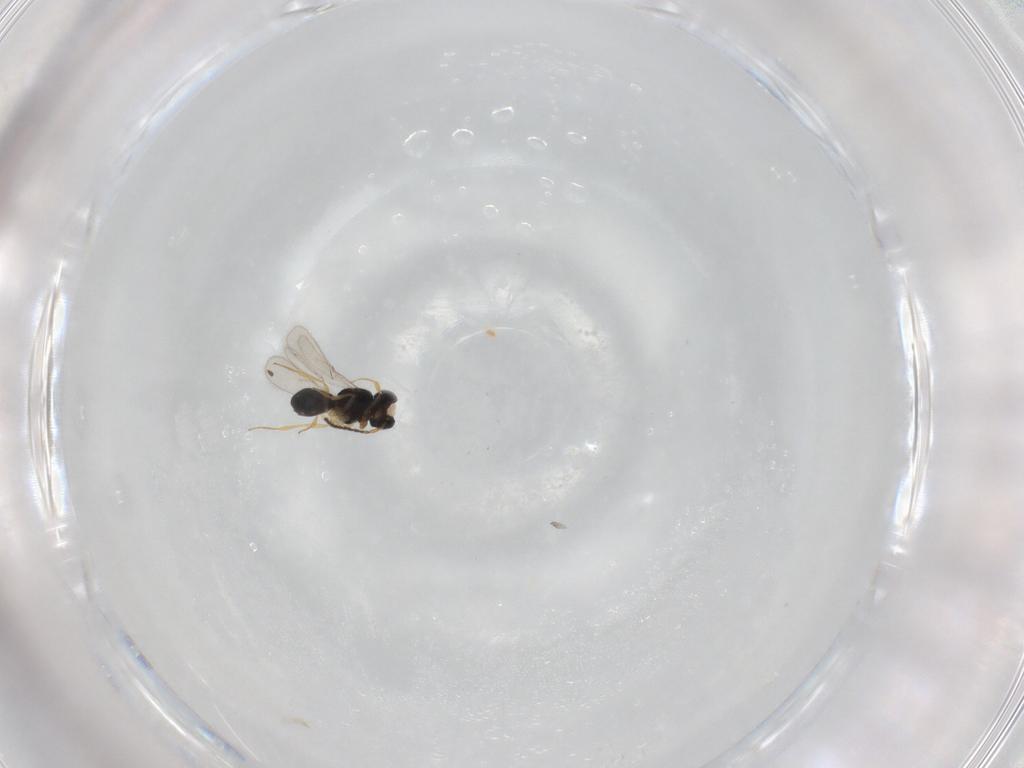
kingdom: Animalia
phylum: Arthropoda
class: Insecta
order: Hymenoptera
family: Scelionidae
